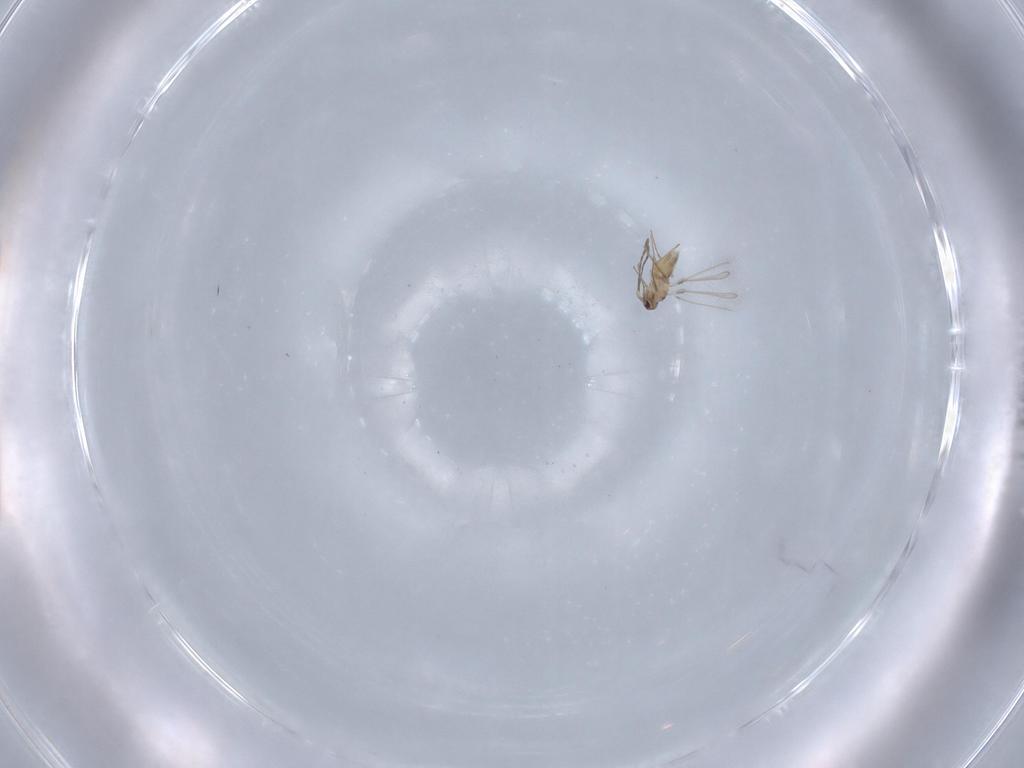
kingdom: Animalia
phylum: Arthropoda
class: Insecta
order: Hymenoptera
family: Mymaridae
